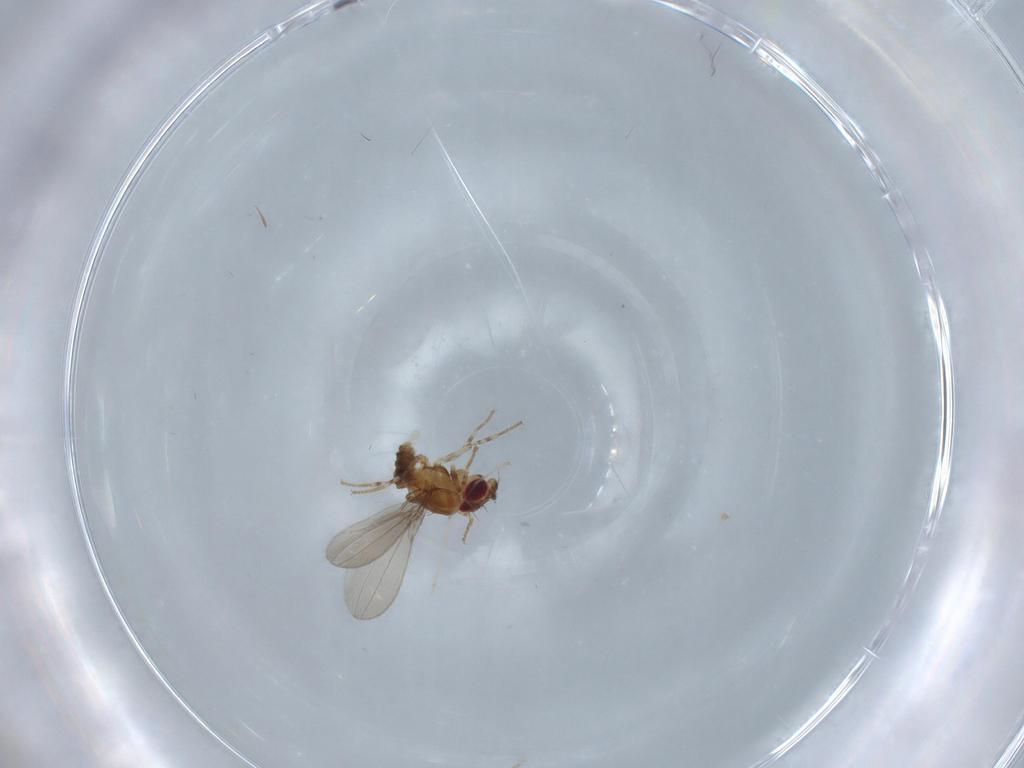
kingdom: Animalia
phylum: Arthropoda
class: Insecta
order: Diptera
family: Asteiidae
